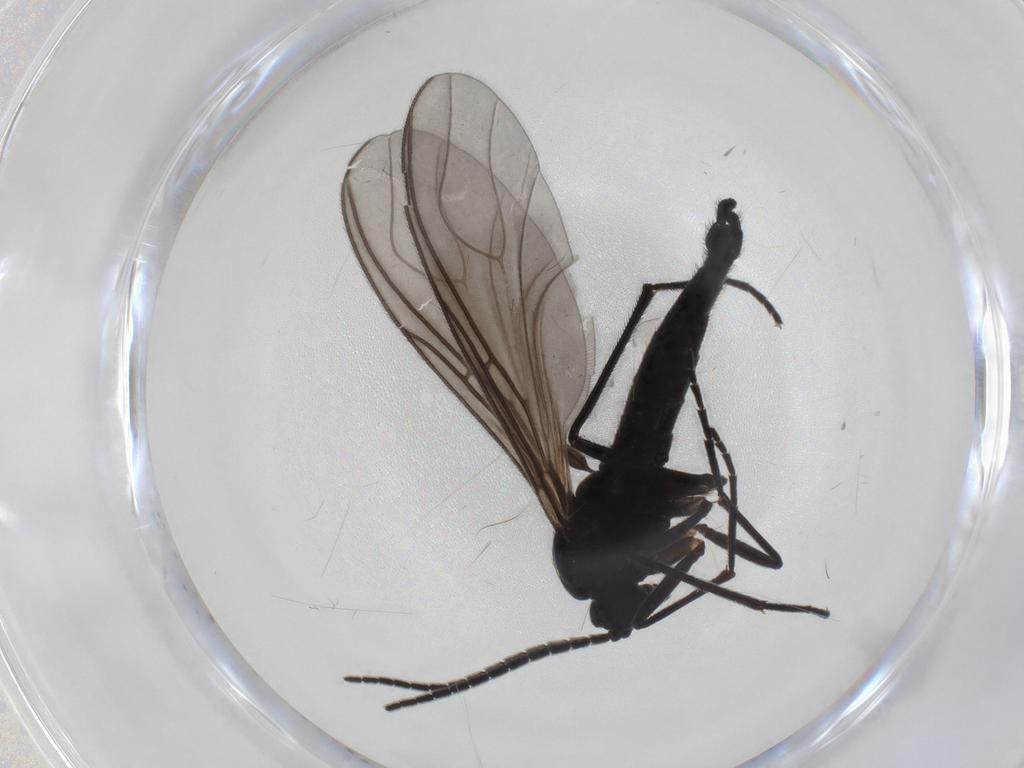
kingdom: Animalia
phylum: Arthropoda
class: Insecta
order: Diptera
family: Sciaridae
